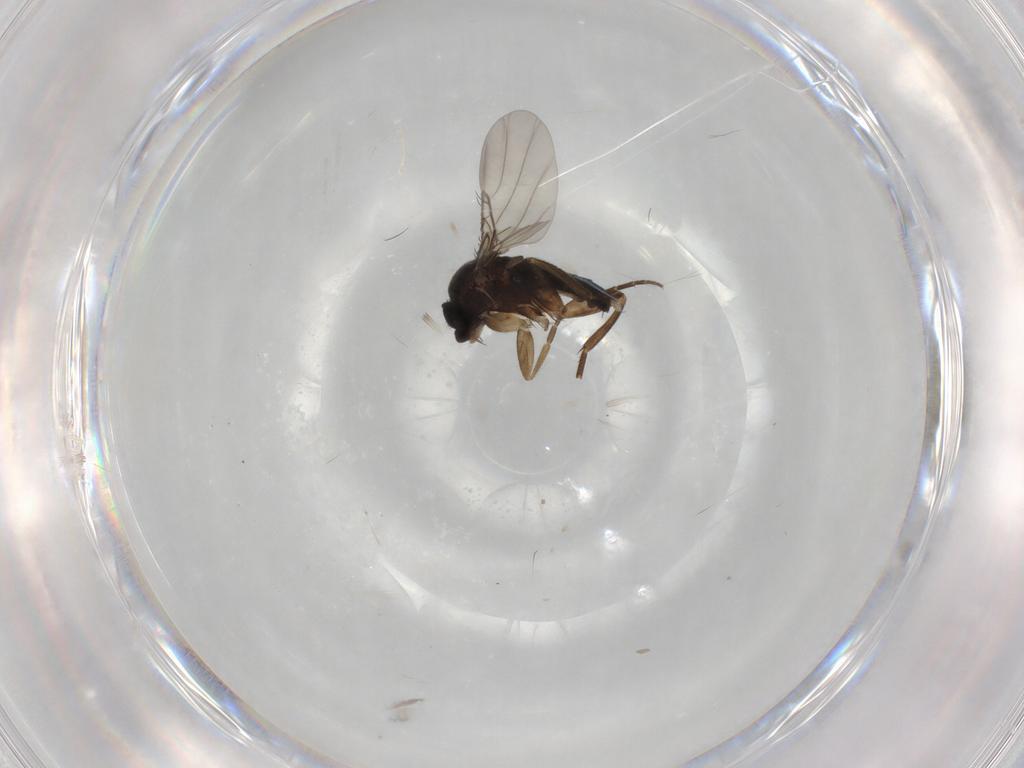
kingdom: Animalia
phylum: Arthropoda
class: Insecta
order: Diptera
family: Phoridae
